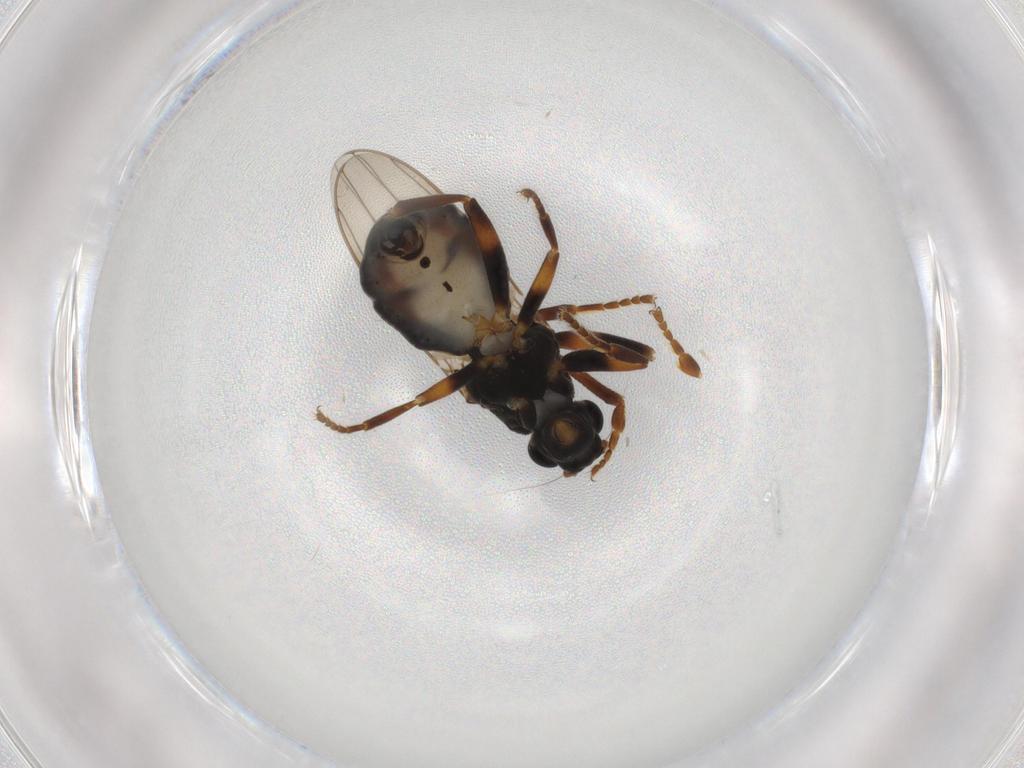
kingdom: Animalia
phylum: Arthropoda
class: Insecta
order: Diptera
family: Sphaeroceridae
